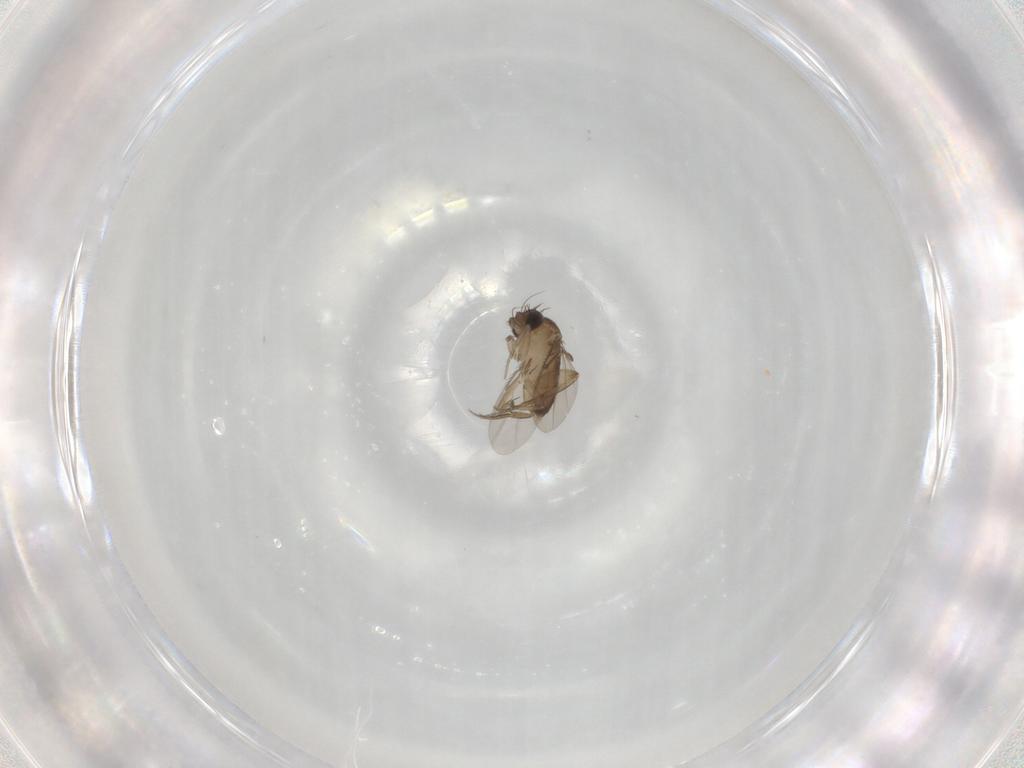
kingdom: Animalia
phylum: Arthropoda
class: Insecta
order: Diptera
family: Phoridae
